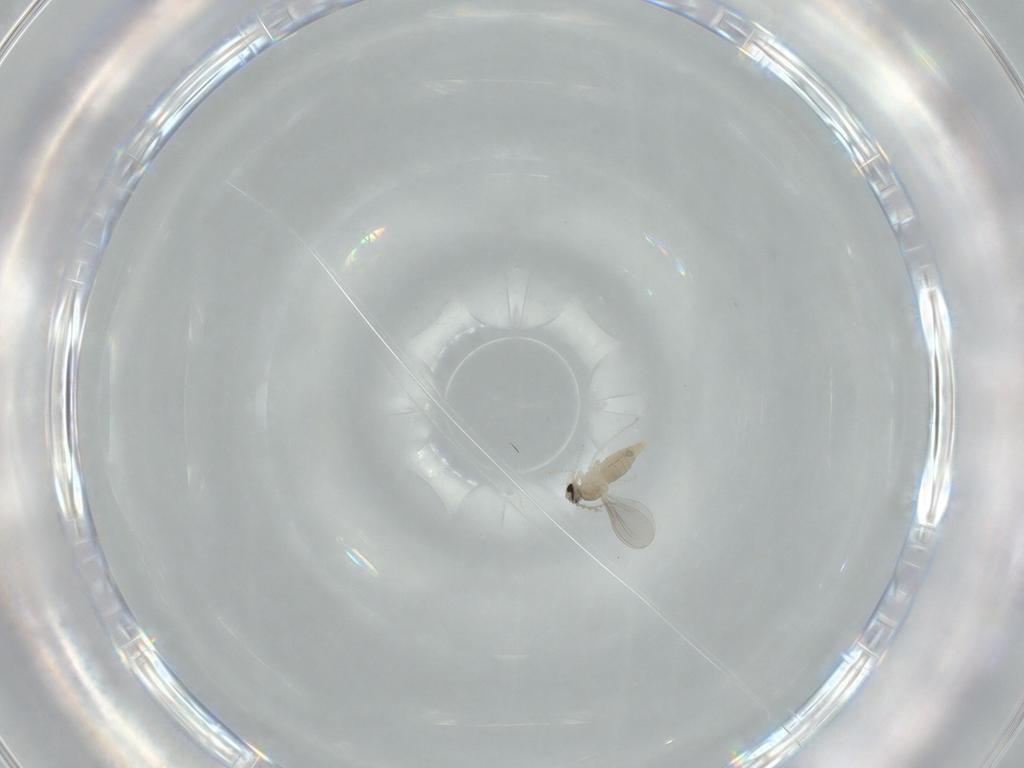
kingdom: Animalia
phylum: Arthropoda
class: Insecta
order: Diptera
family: Cecidomyiidae
